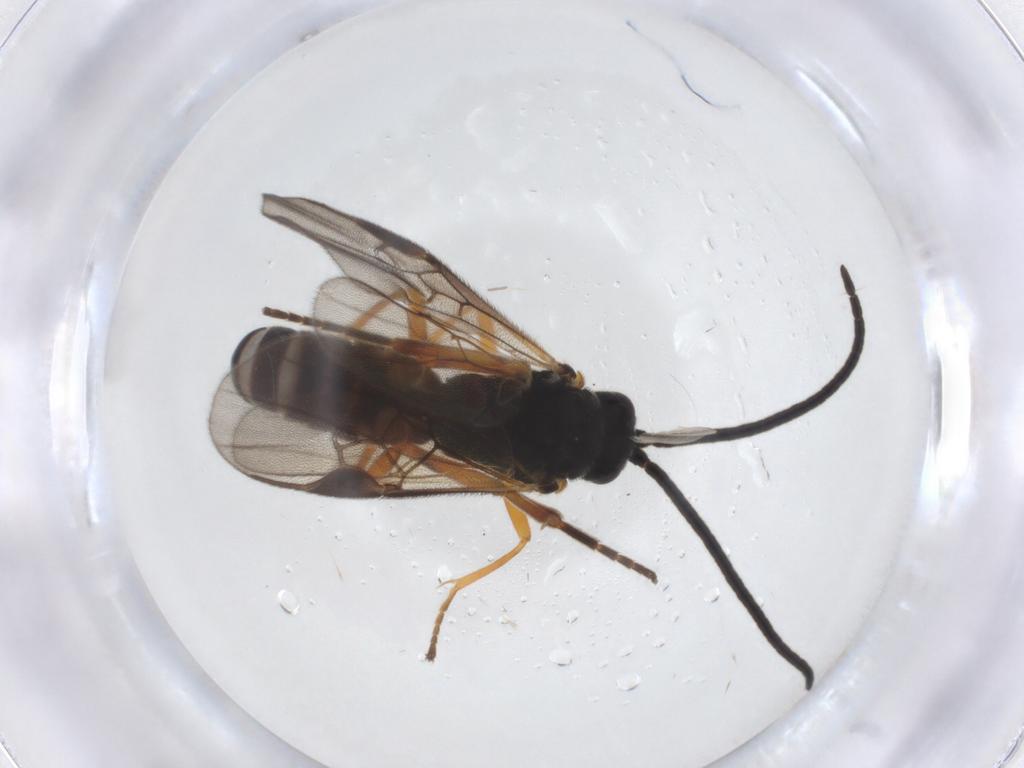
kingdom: Animalia
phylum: Arthropoda
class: Insecta
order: Hymenoptera
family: Braconidae
